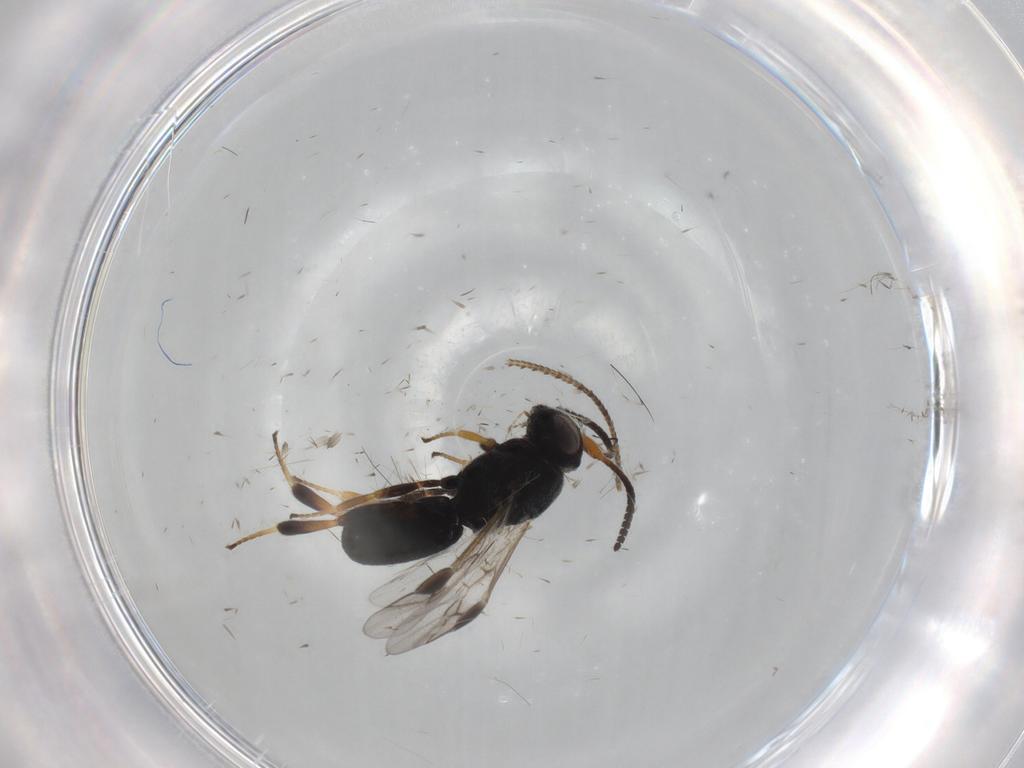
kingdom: Animalia
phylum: Arthropoda
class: Insecta
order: Hymenoptera
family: Braconidae
